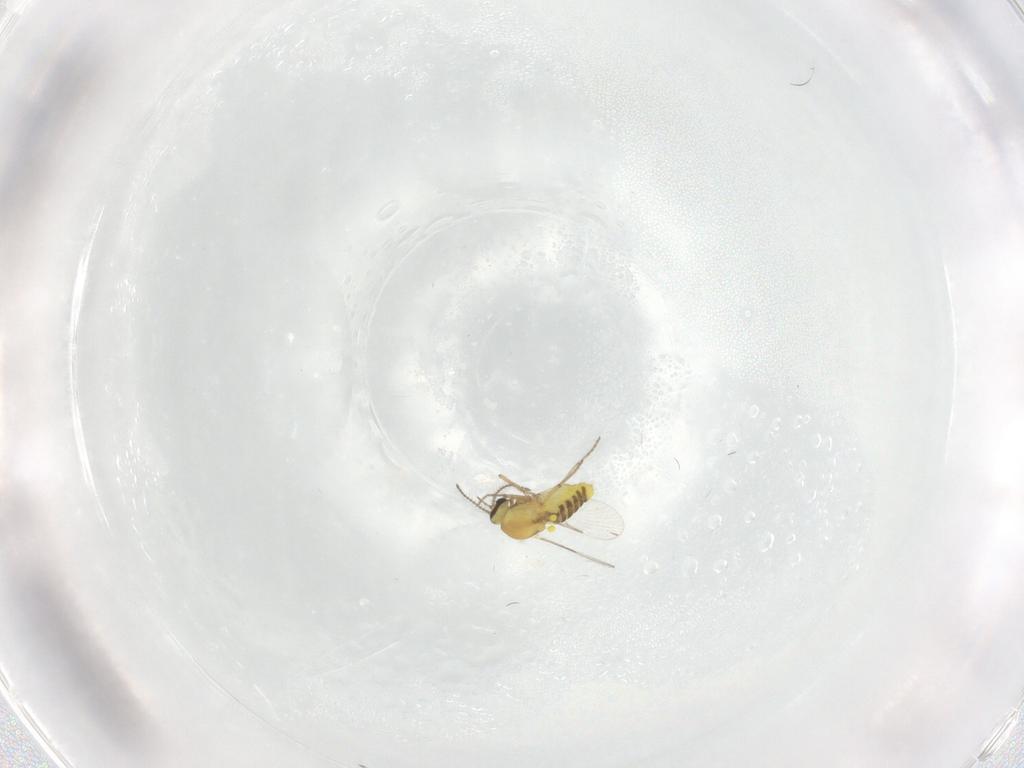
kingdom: Animalia
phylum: Arthropoda
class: Insecta
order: Diptera
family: Ceratopogonidae
